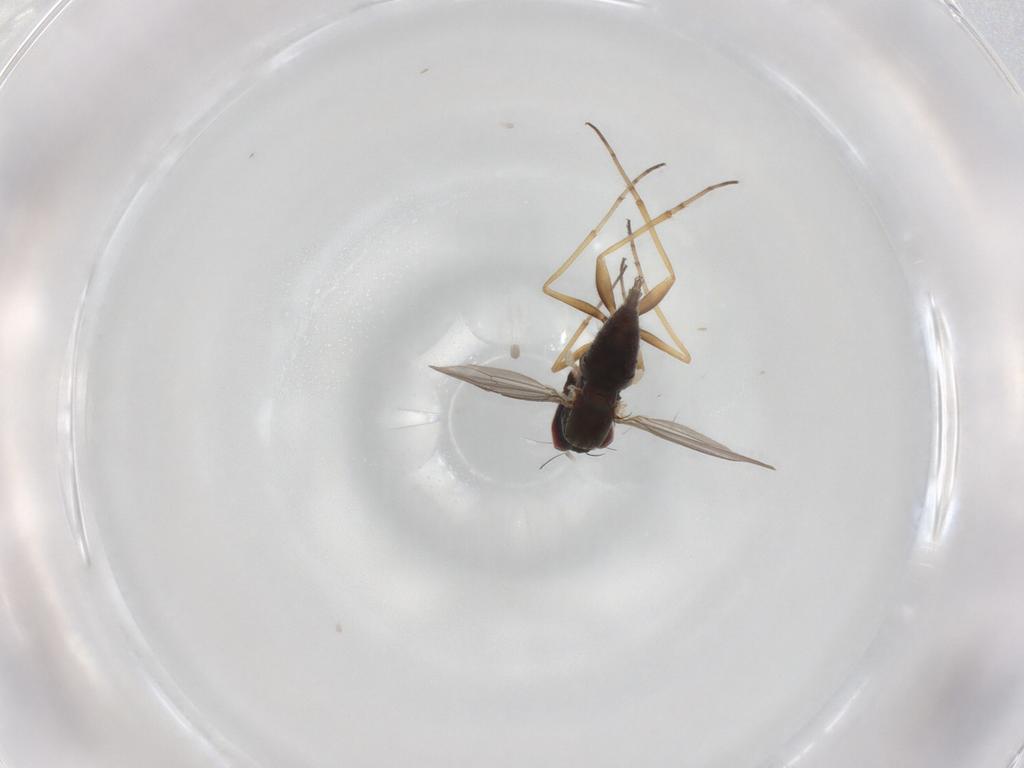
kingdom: Animalia
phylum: Arthropoda
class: Insecta
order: Diptera
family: Dolichopodidae
